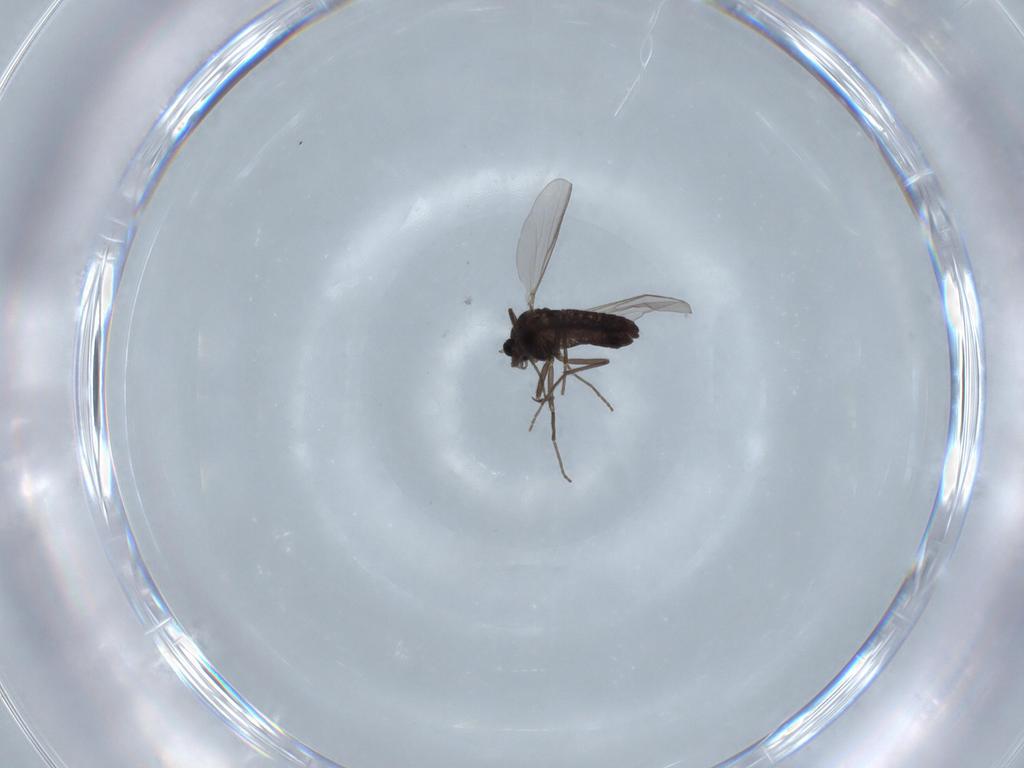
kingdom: Animalia
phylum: Arthropoda
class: Insecta
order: Diptera
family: Chironomidae
